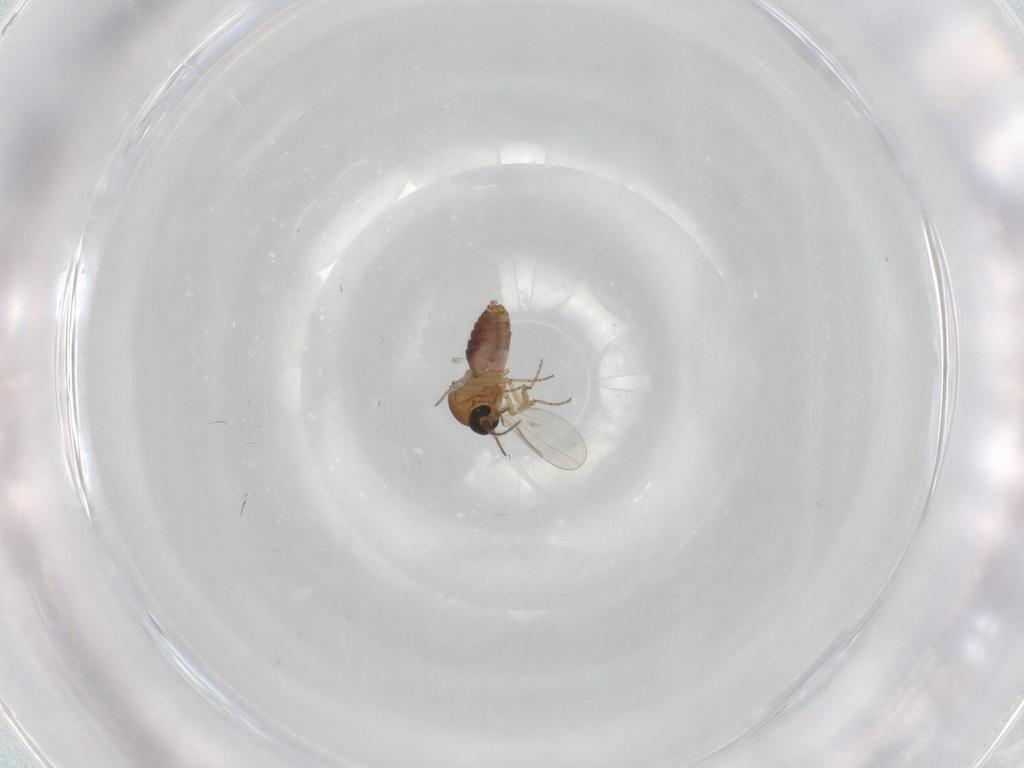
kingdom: Animalia
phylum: Arthropoda
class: Insecta
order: Diptera
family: Ceratopogonidae
